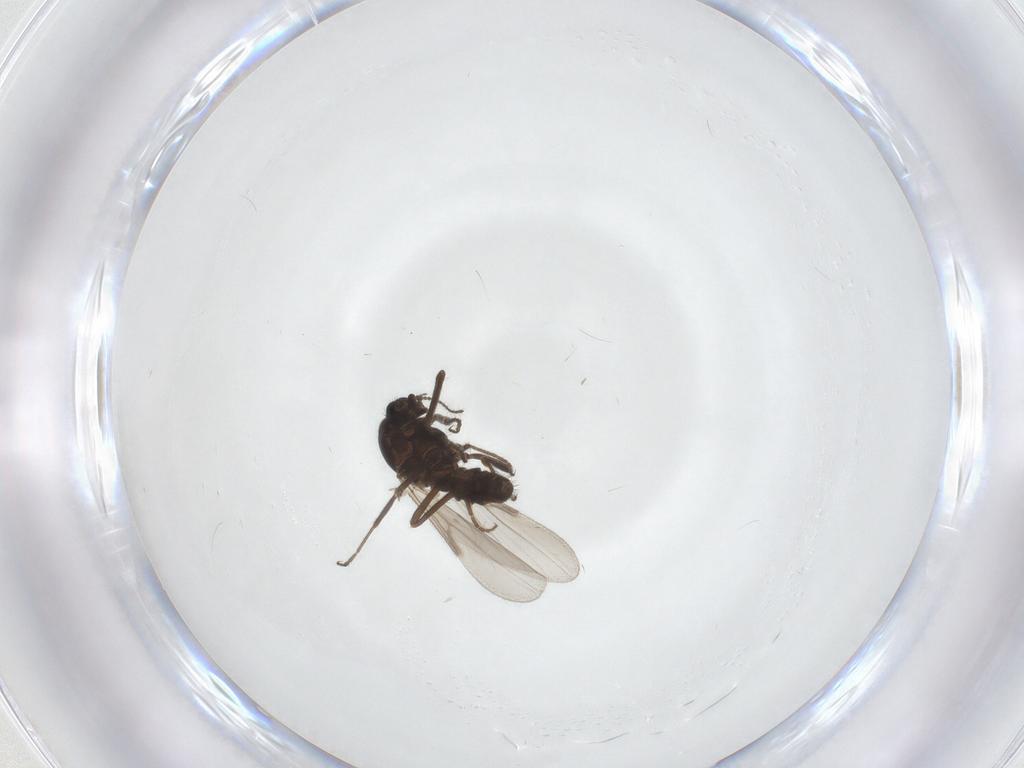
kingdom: Animalia
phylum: Arthropoda
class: Insecta
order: Diptera
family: Ceratopogonidae
